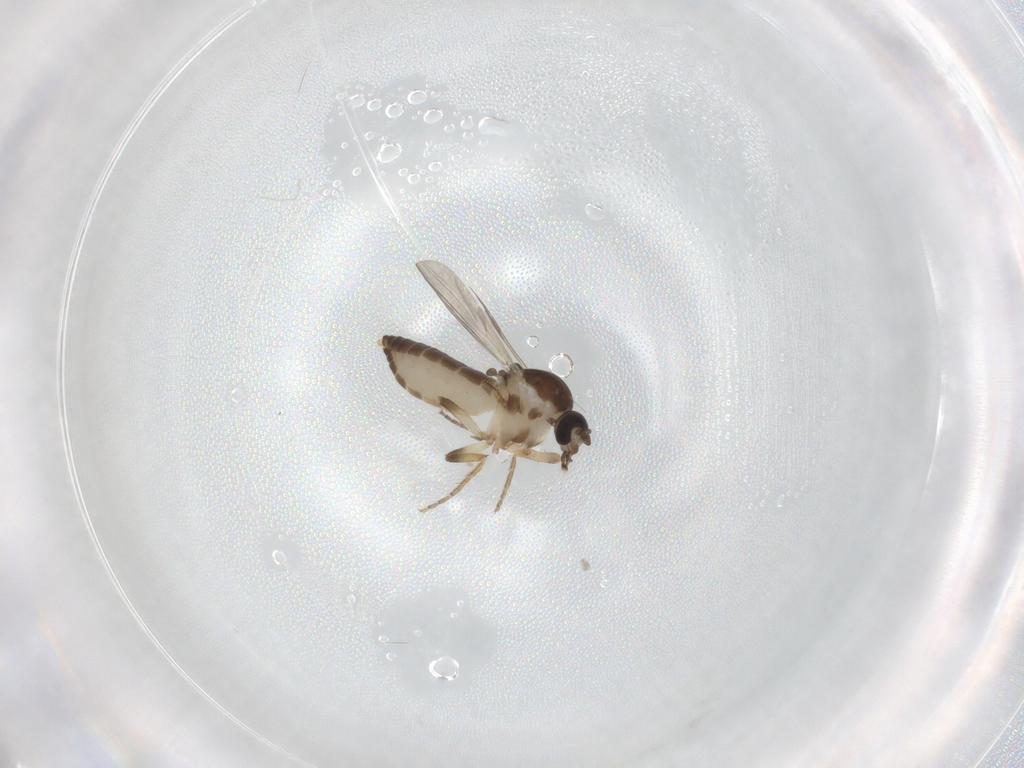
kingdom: Animalia
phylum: Arthropoda
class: Insecta
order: Diptera
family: Ceratopogonidae
